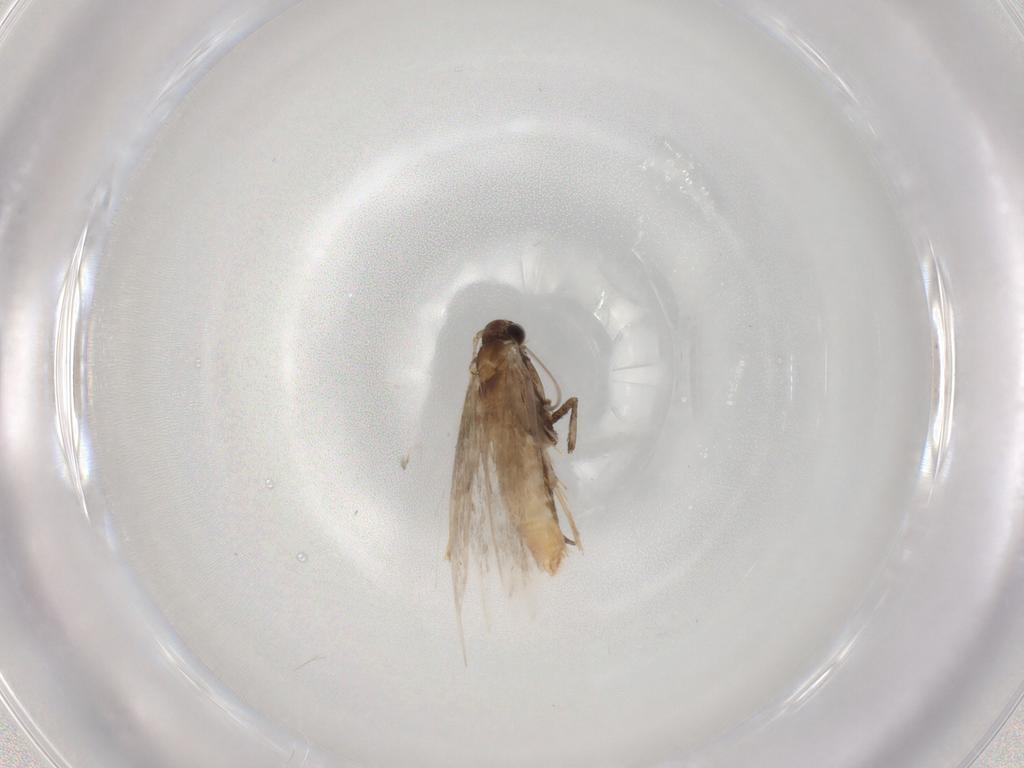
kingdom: Animalia
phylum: Arthropoda
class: Insecta
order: Lepidoptera
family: Gracillariidae
